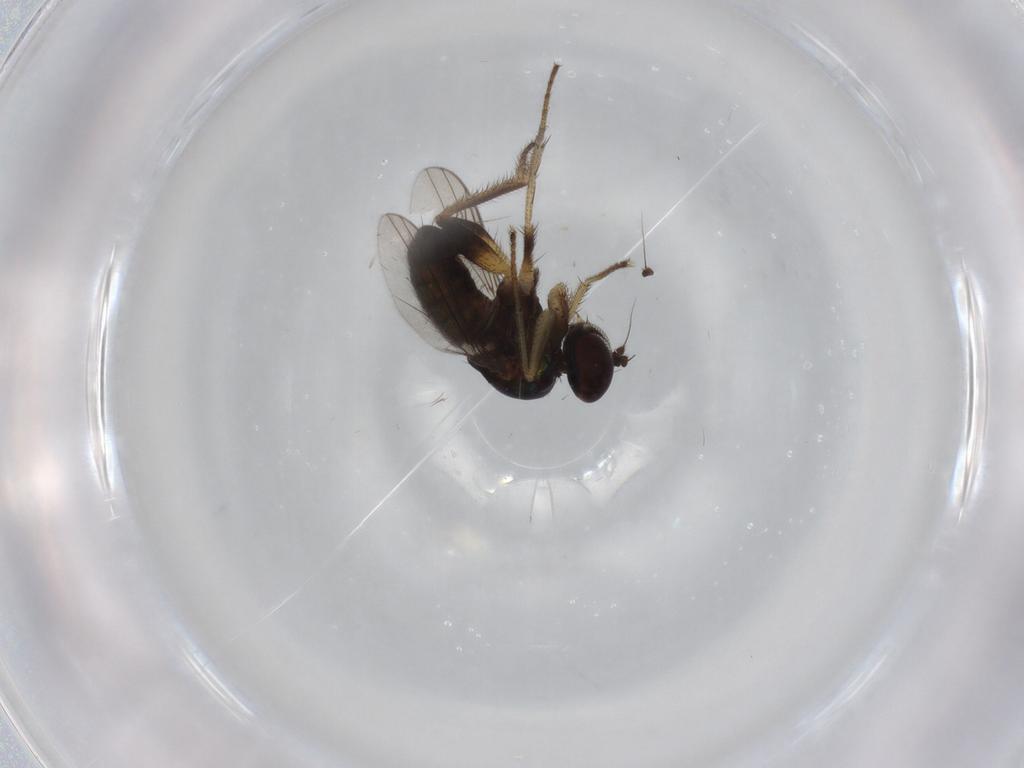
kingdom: Animalia
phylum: Arthropoda
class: Insecta
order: Diptera
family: Dolichopodidae
